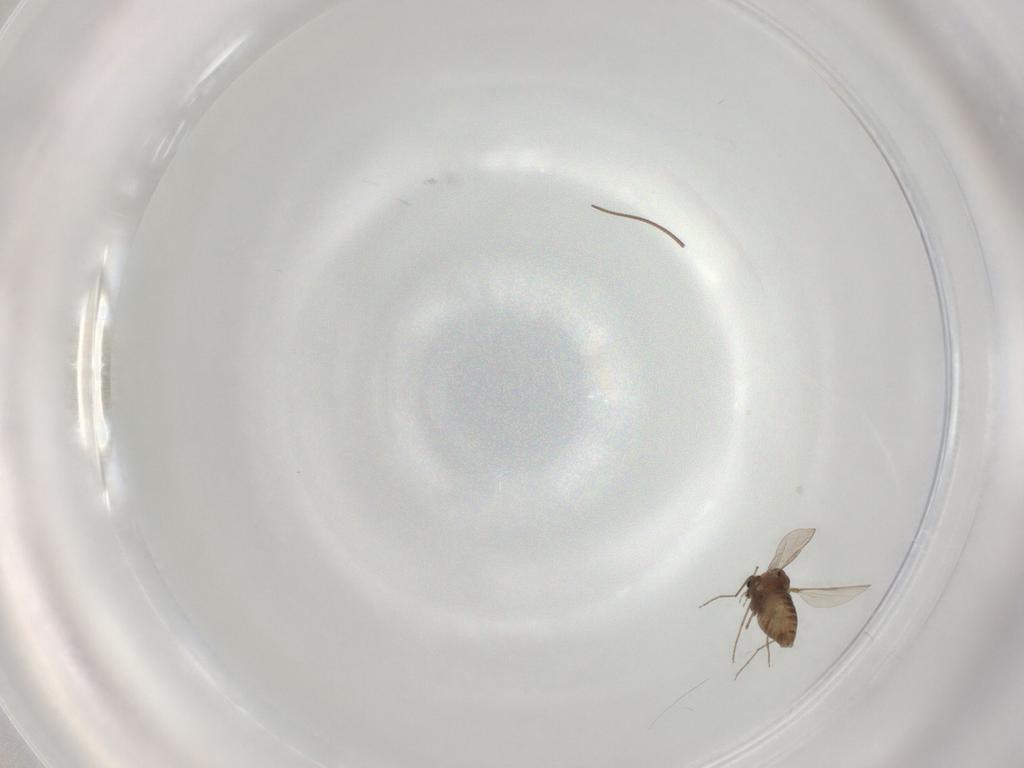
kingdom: Animalia
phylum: Arthropoda
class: Insecta
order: Diptera
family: Chironomidae
